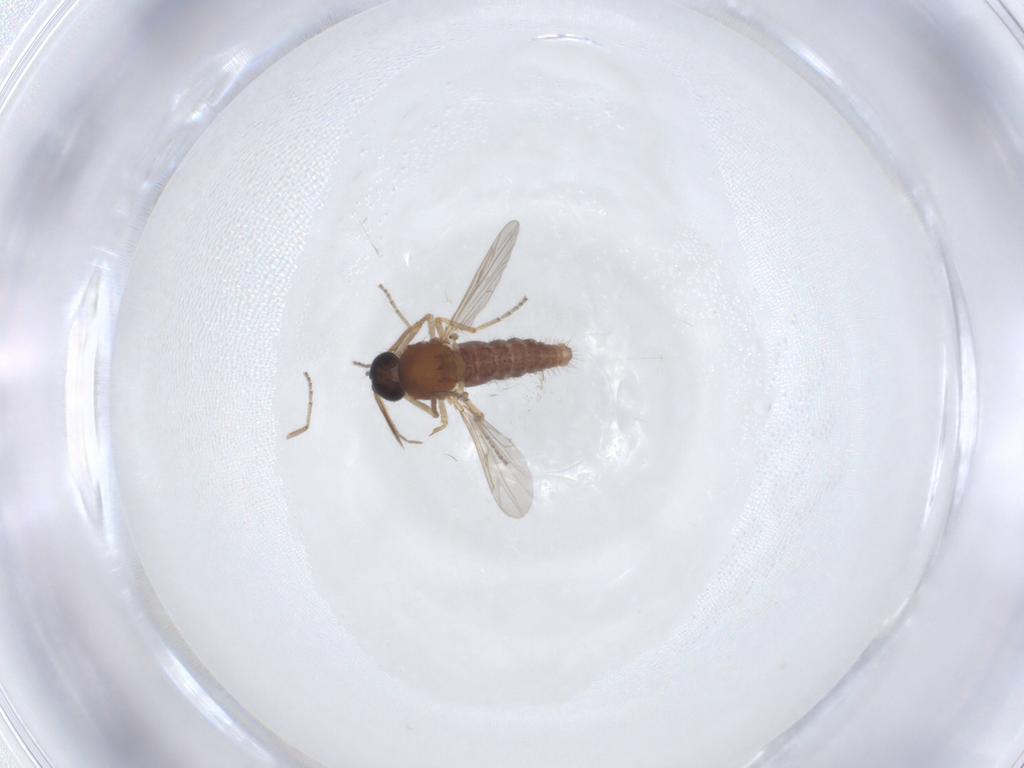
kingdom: Animalia
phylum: Arthropoda
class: Insecta
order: Diptera
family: Ceratopogonidae
